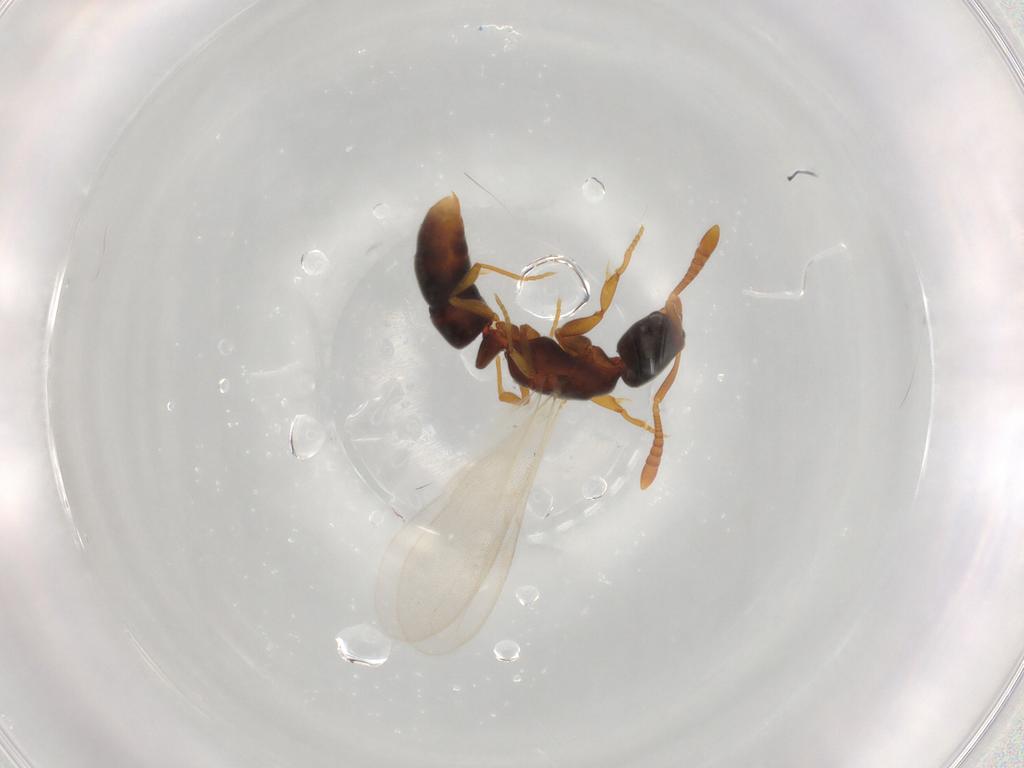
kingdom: Animalia
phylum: Arthropoda
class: Insecta
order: Hymenoptera
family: Formicidae
